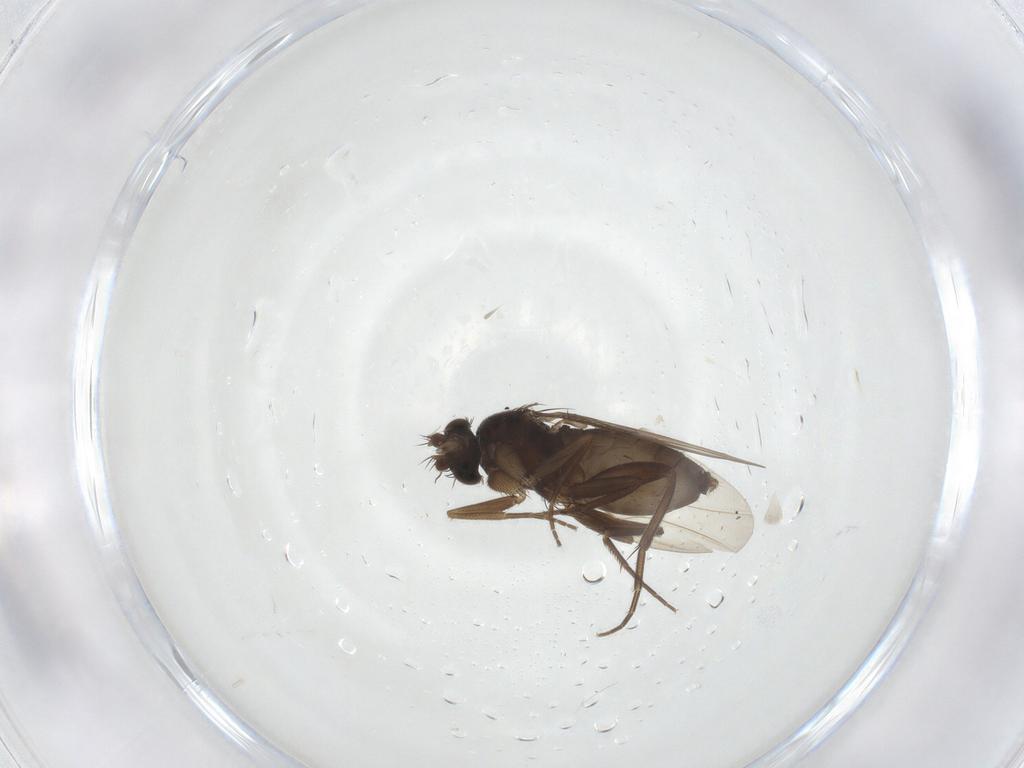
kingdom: Animalia
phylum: Arthropoda
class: Insecta
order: Diptera
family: Phoridae
